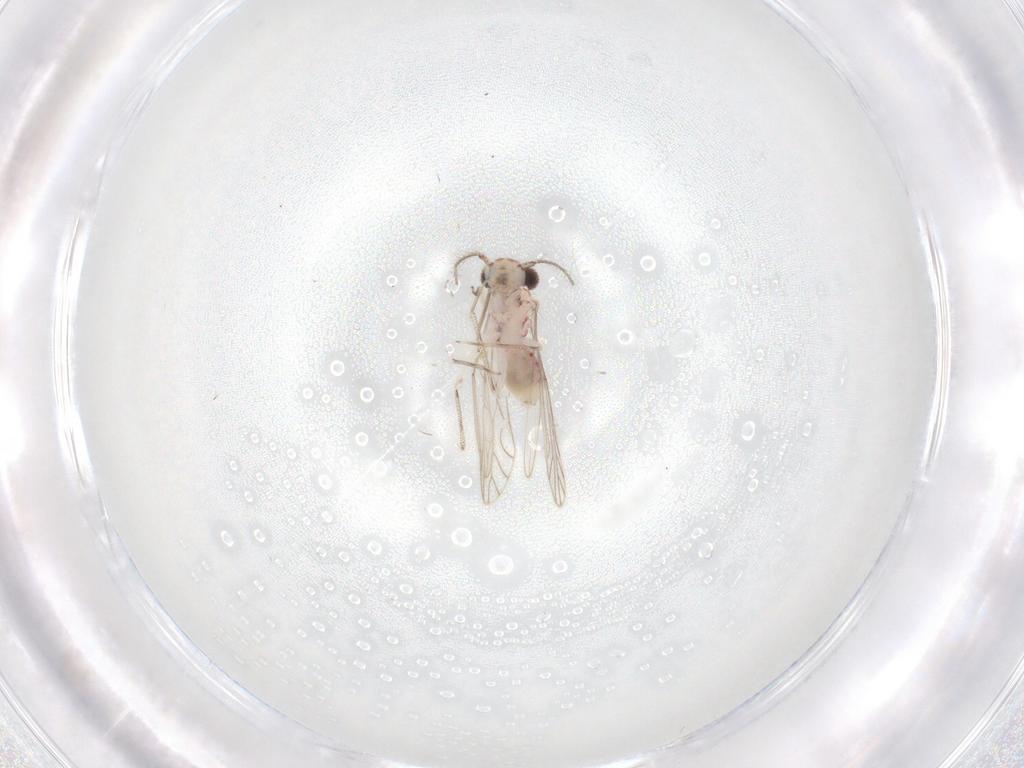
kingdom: Animalia
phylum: Arthropoda
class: Insecta
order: Psocodea
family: Caeciliusidae
